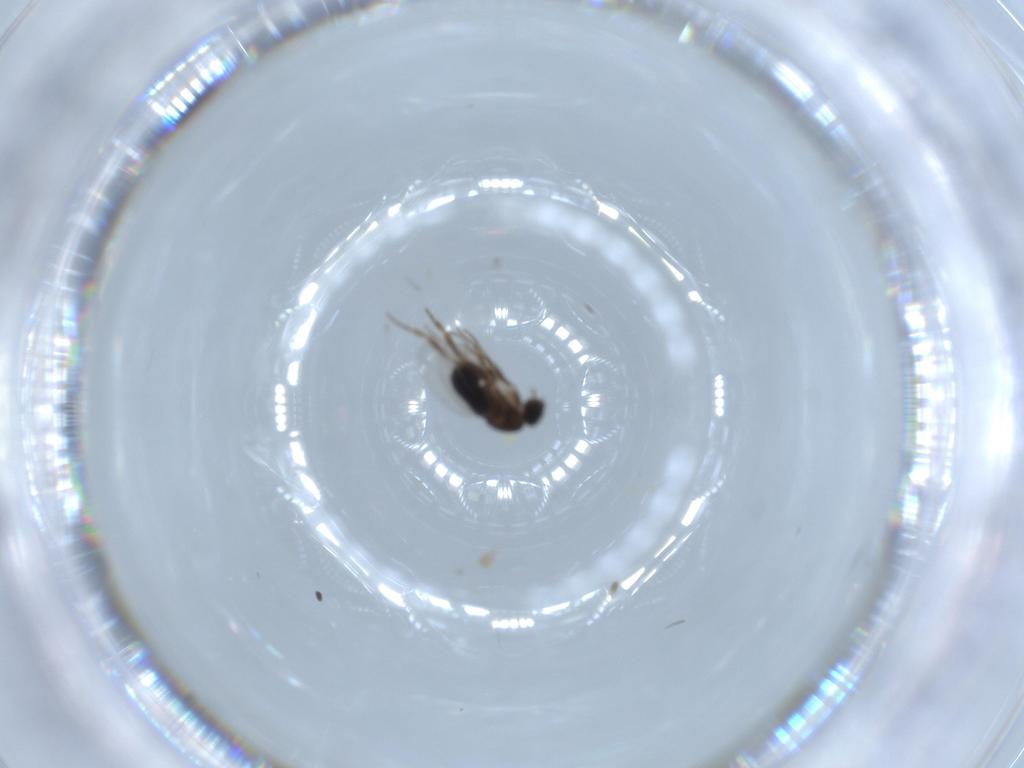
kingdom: Animalia
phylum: Arthropoda
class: Insecta
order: Diptera
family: Phoridae
